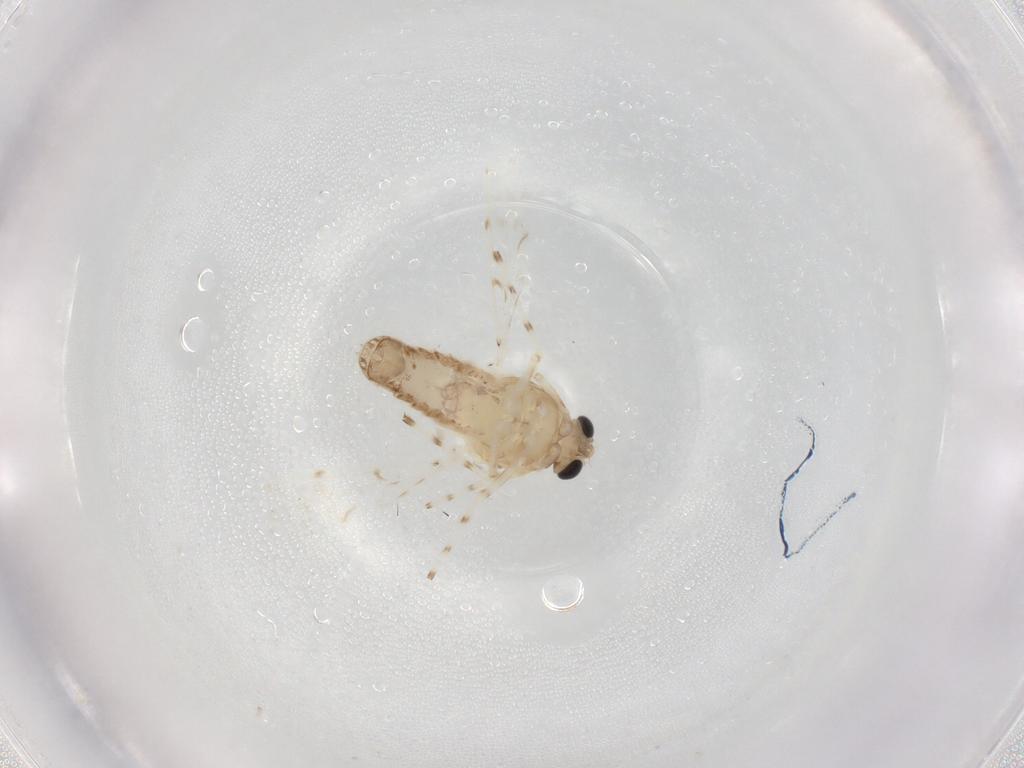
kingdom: Animalia
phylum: Arthropoda
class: Insecta
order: Diptera
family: Chironomidae
